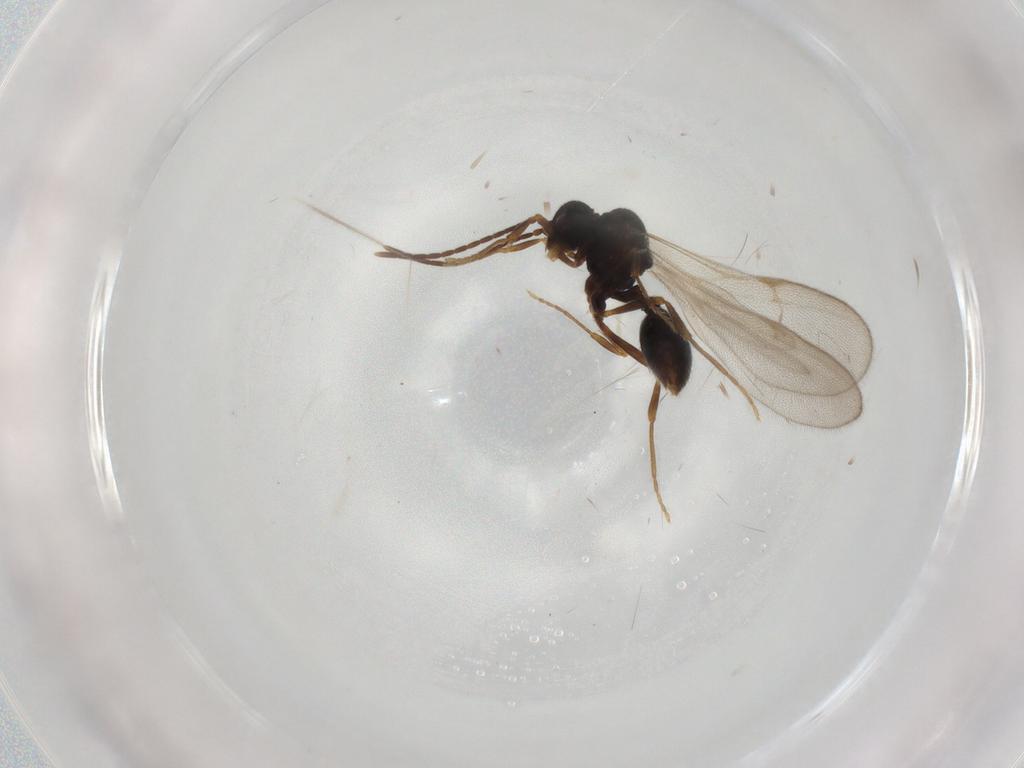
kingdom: Animalia
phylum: Arthropoda
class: Insecta
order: Hymenoptera
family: Formicidae
